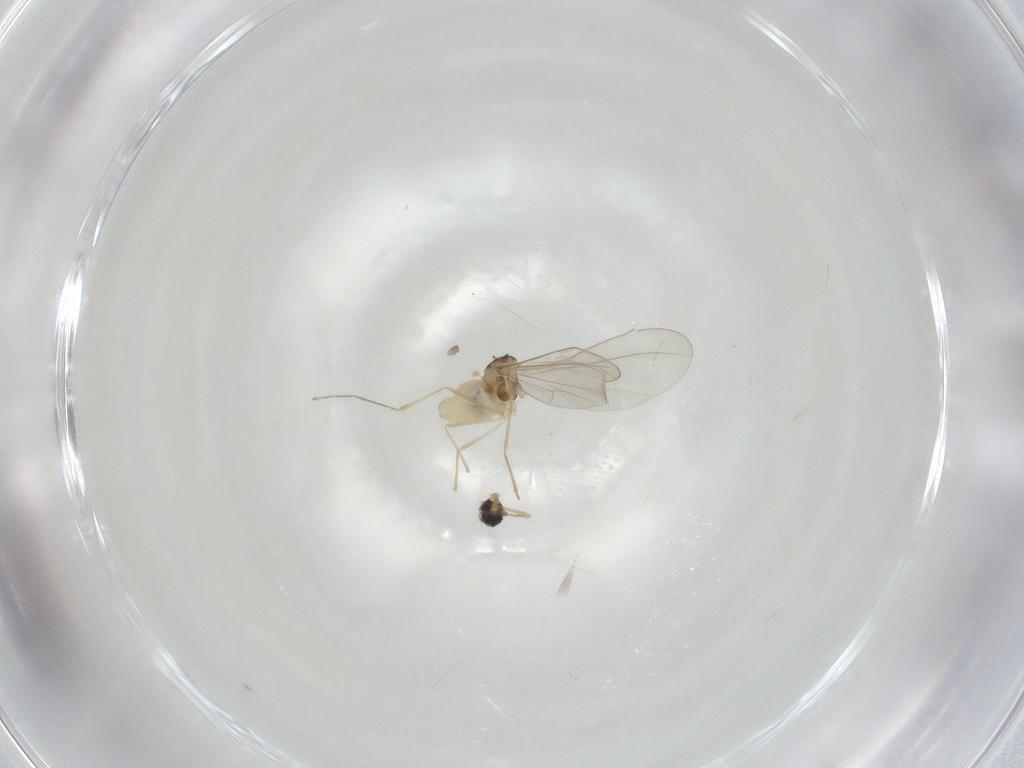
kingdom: Animalia
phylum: Arthropoda
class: Insecta
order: Diptera
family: Cecidomyiidae
